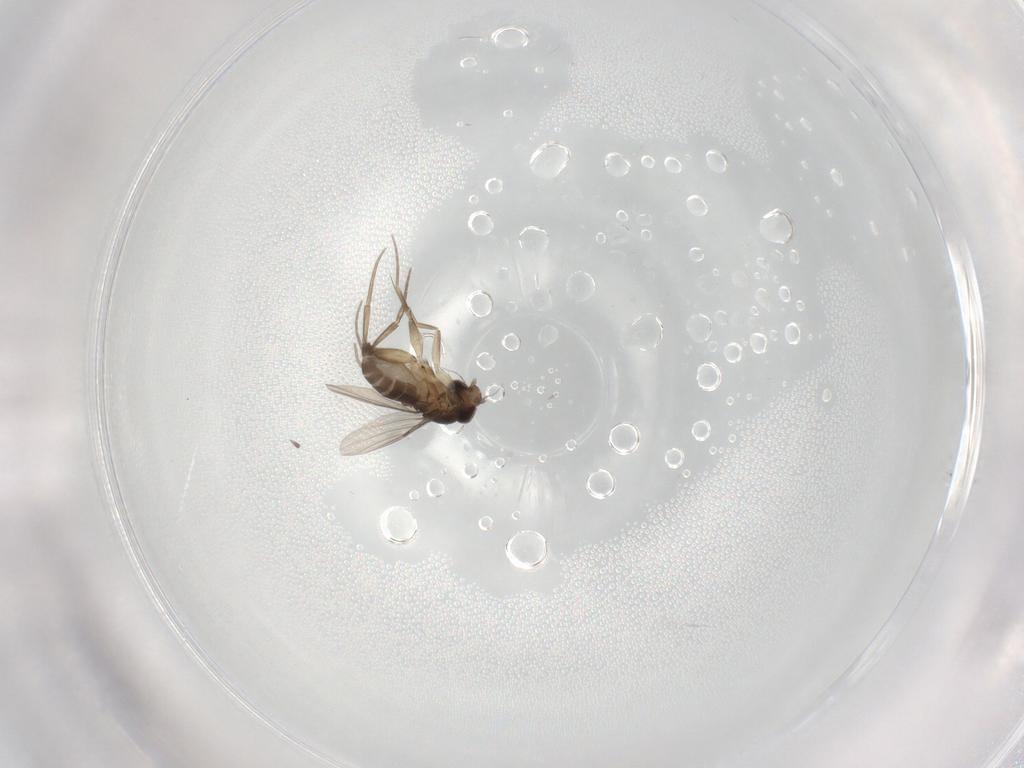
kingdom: Animalia
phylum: Arthropoda
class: Insecta
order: Diptera
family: Phoridae
